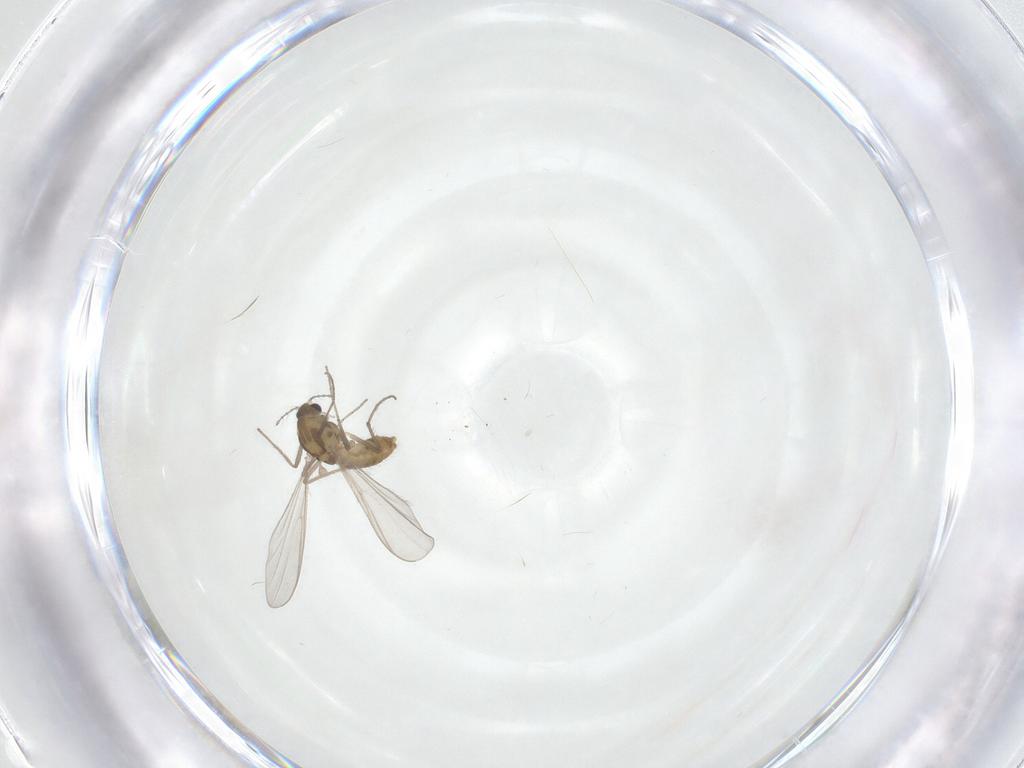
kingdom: Animalia
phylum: Arthropoda
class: Insecta
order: Diptera
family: Chironomidae
